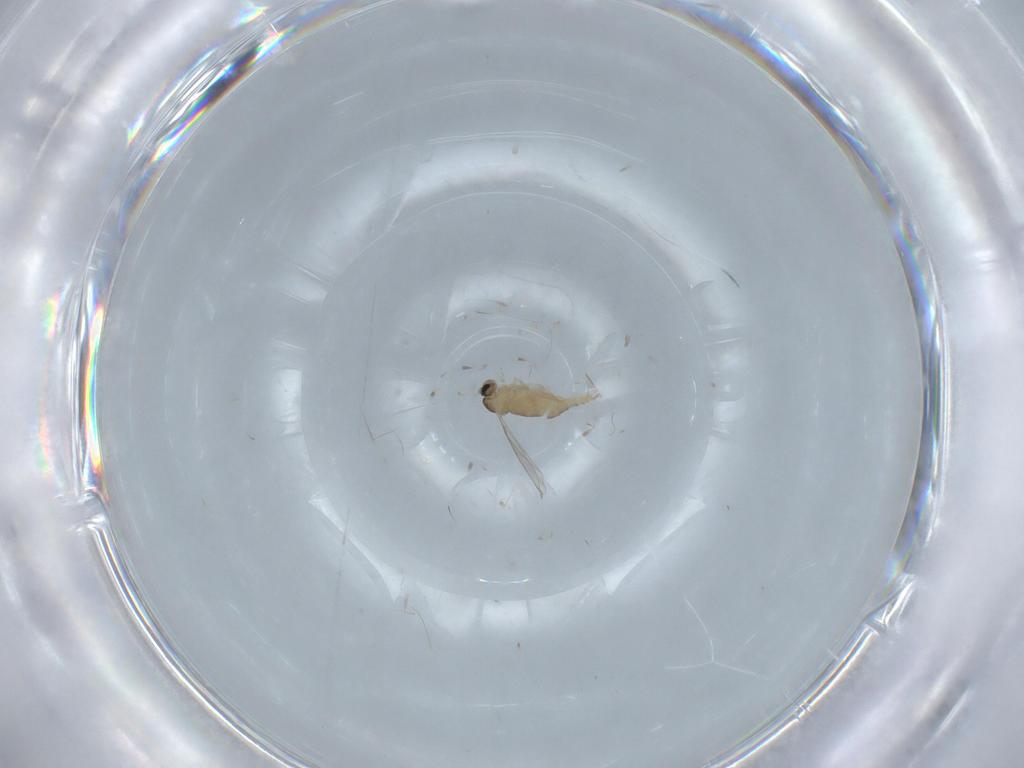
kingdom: Animalia
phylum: Arthropoda
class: Insecta
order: Diptera
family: Cecidomyiidae
